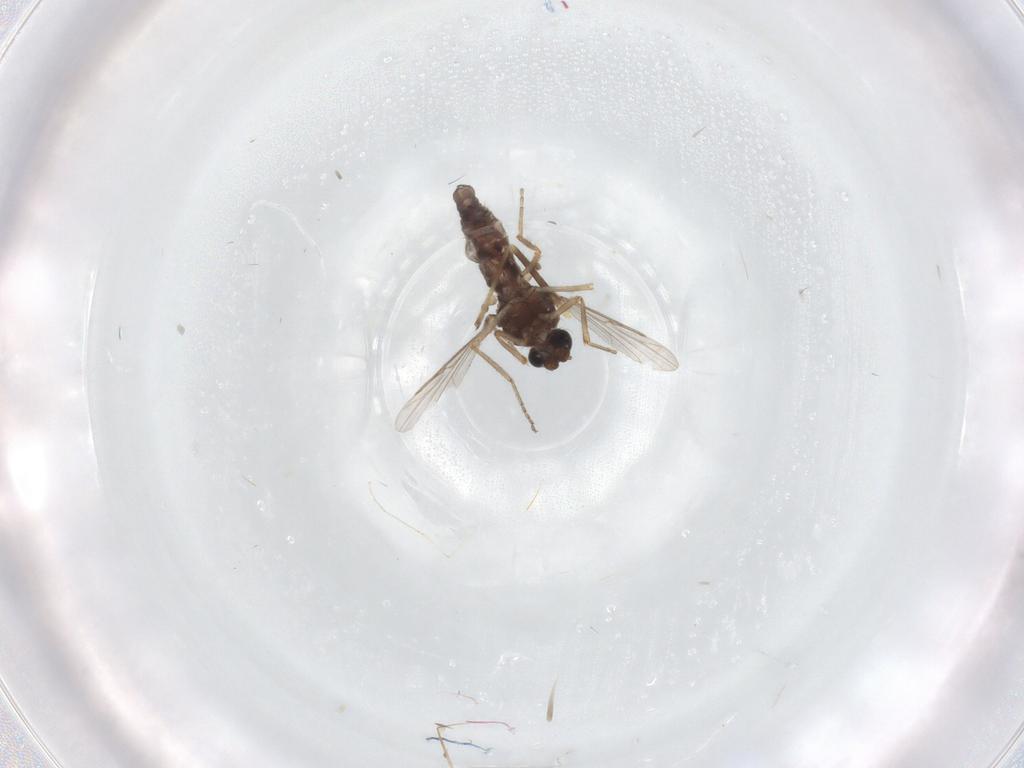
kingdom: Animalia
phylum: Arthropoda
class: Insecta
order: Diptera
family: Ceratopogonidae
